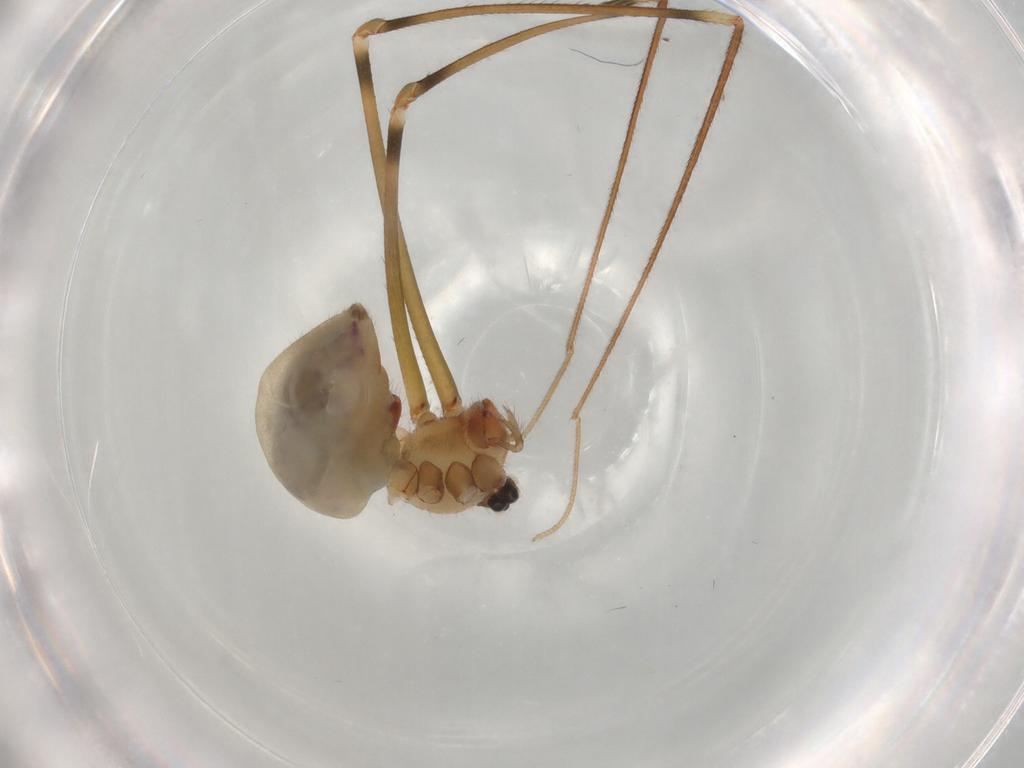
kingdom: Animalia
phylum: Arthropoda
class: Arachnida
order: Araneae
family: Pholcidae
